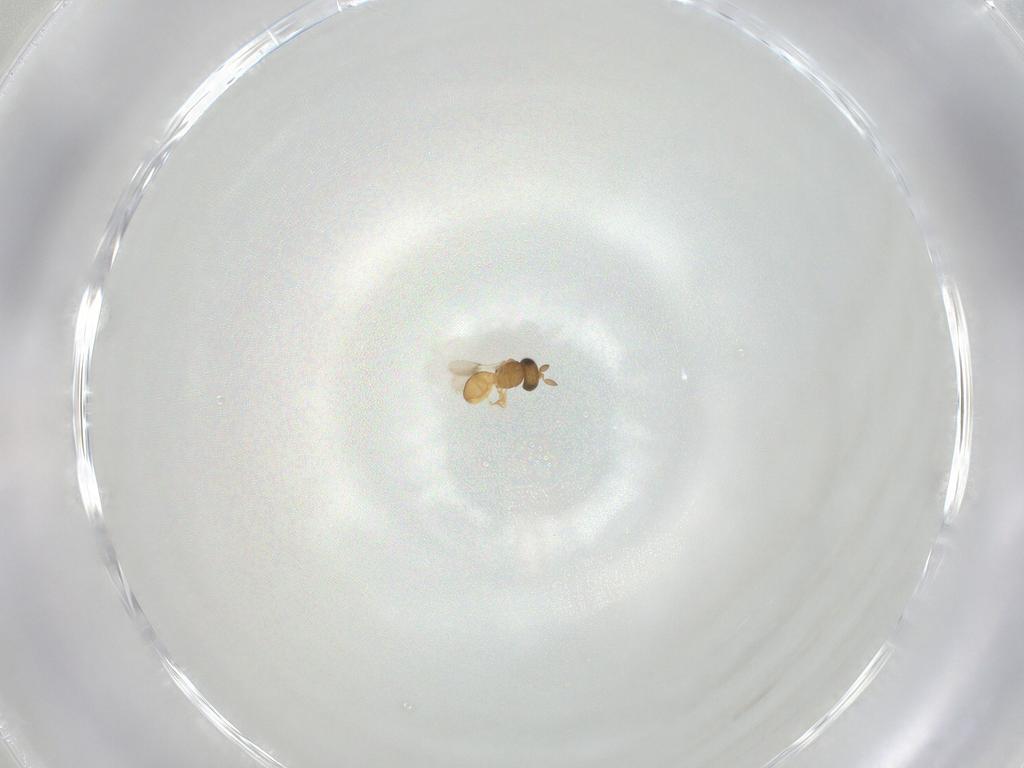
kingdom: Animalia
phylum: Arthropoda
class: Insecta
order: Hymenoptera
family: Scelionidae
